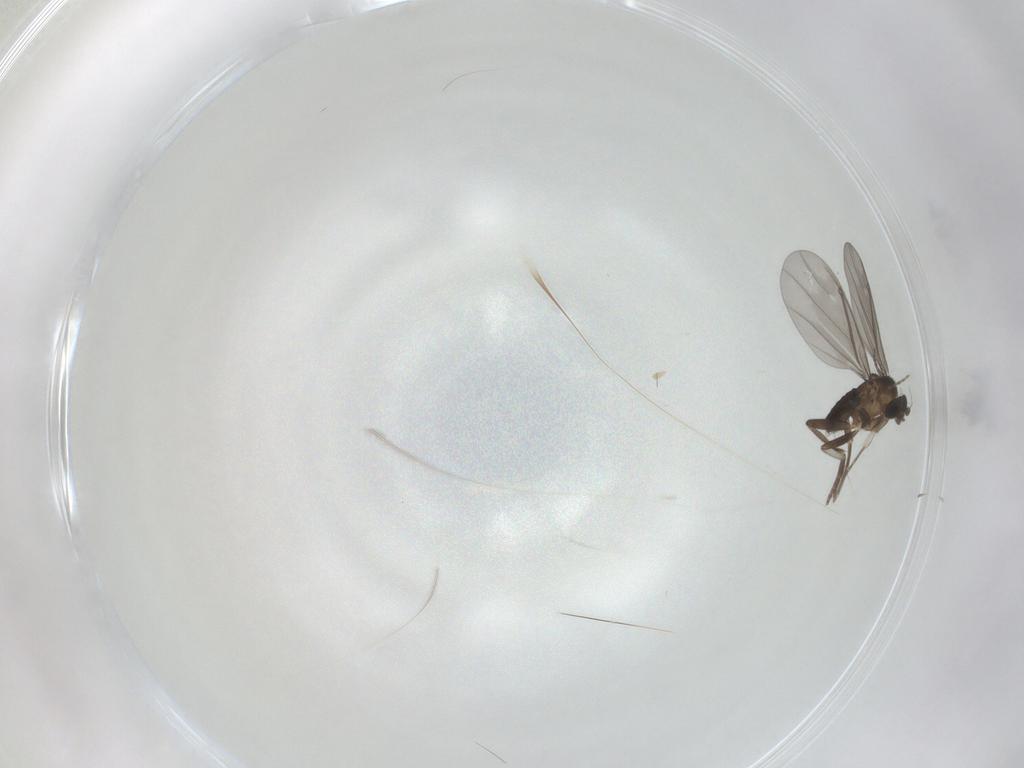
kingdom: Animalia
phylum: Arthropoda
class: Insecta
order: Diptera
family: Phoridae
